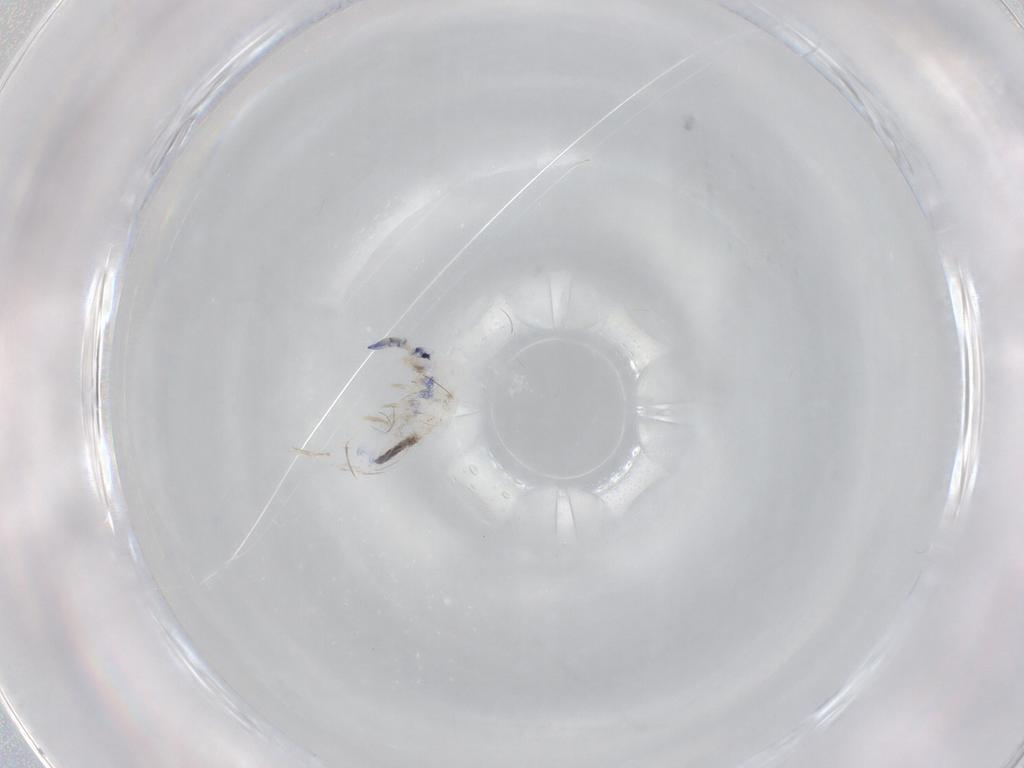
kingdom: Animalia
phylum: Arthropoda
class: Collembola
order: Entomobryomorpha
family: Entomobryidae
